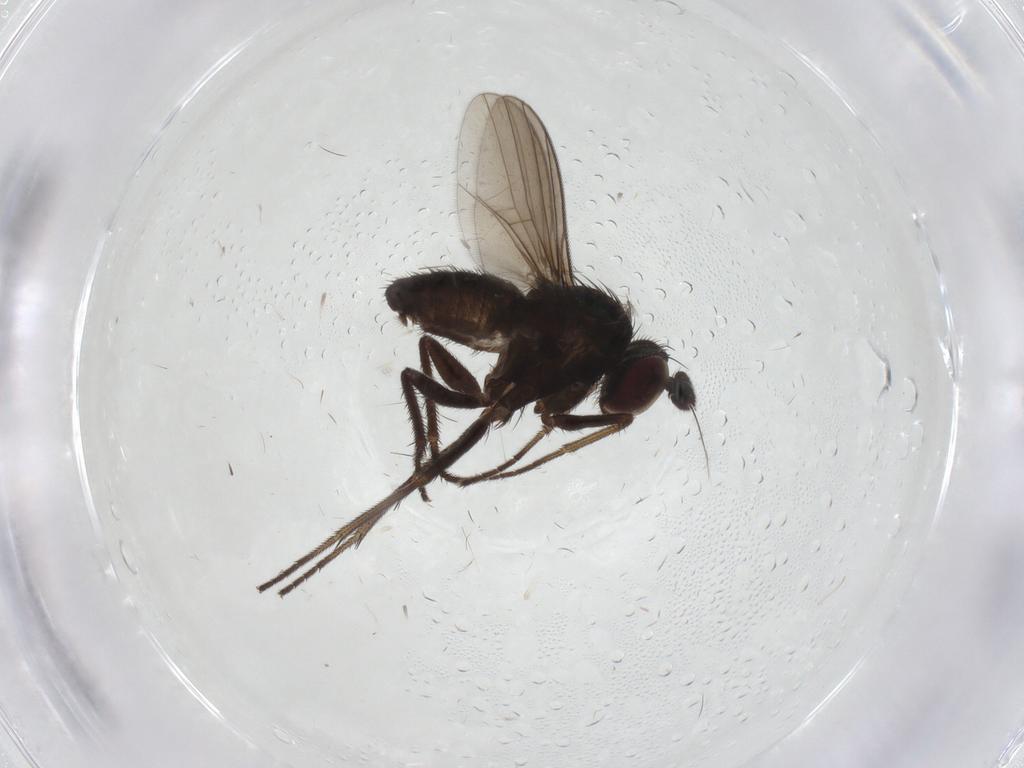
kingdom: Animalia
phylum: Arthropoda
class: Insecta
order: Diptera
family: Dolichopodidae
